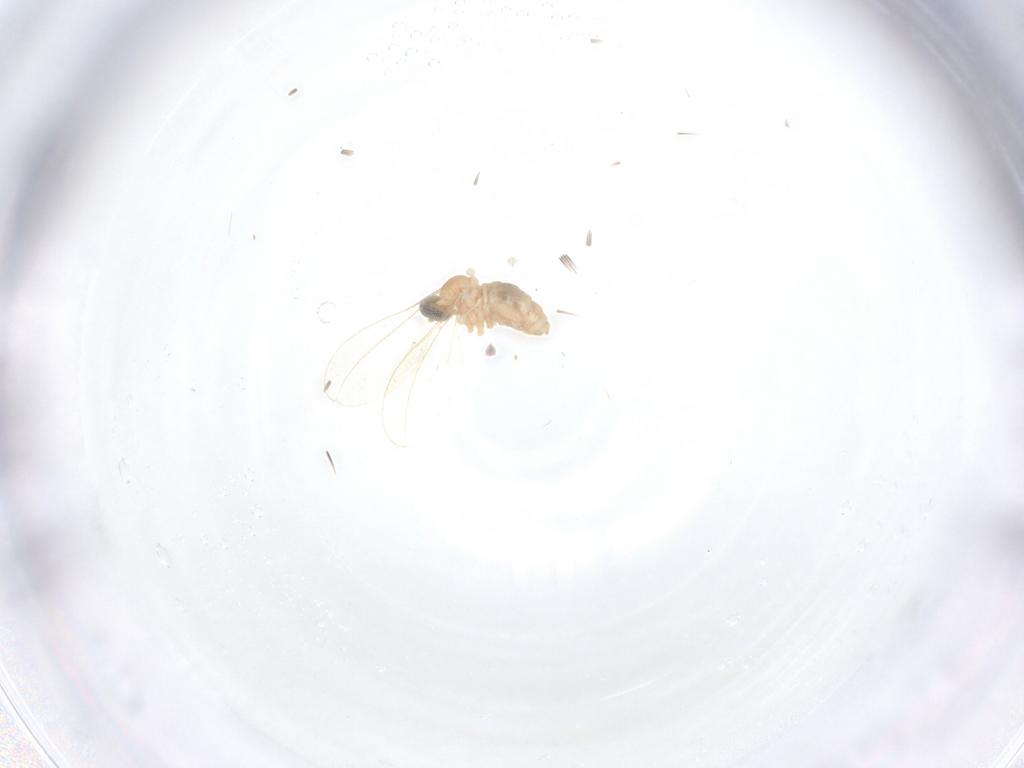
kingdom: Animalia
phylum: Arthropoda
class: Insecta
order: Diptera
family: Cecidomyiidae
